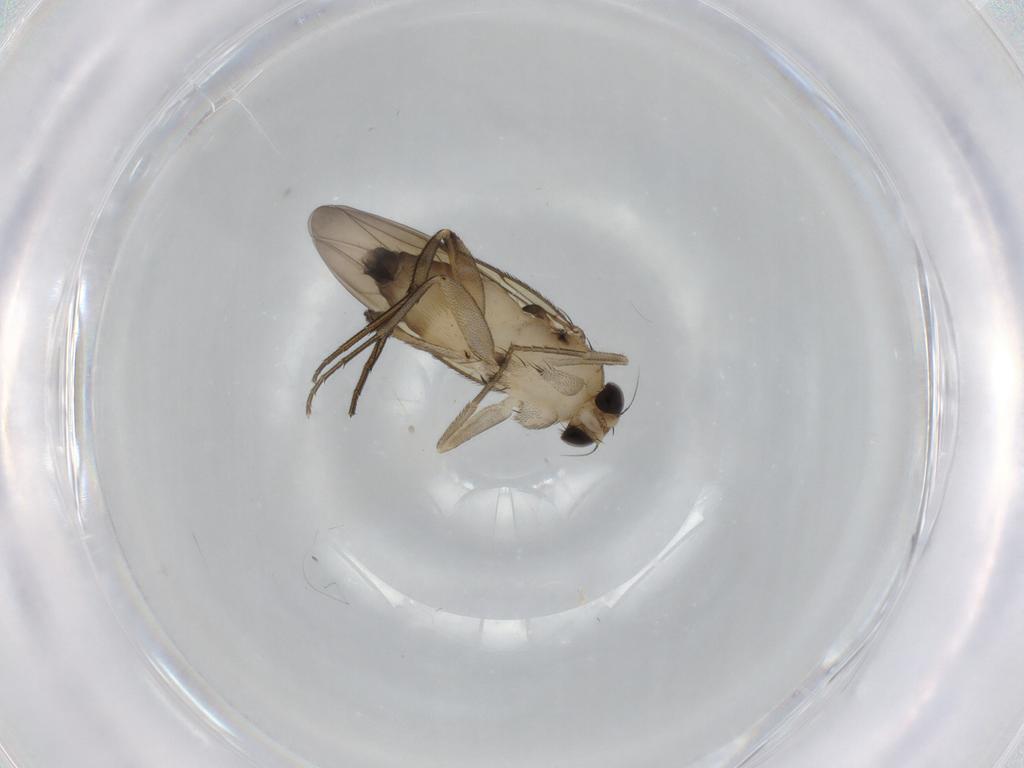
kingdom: Animalia
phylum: Arthropoda
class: Insecta
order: Diptera
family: Phoridae
